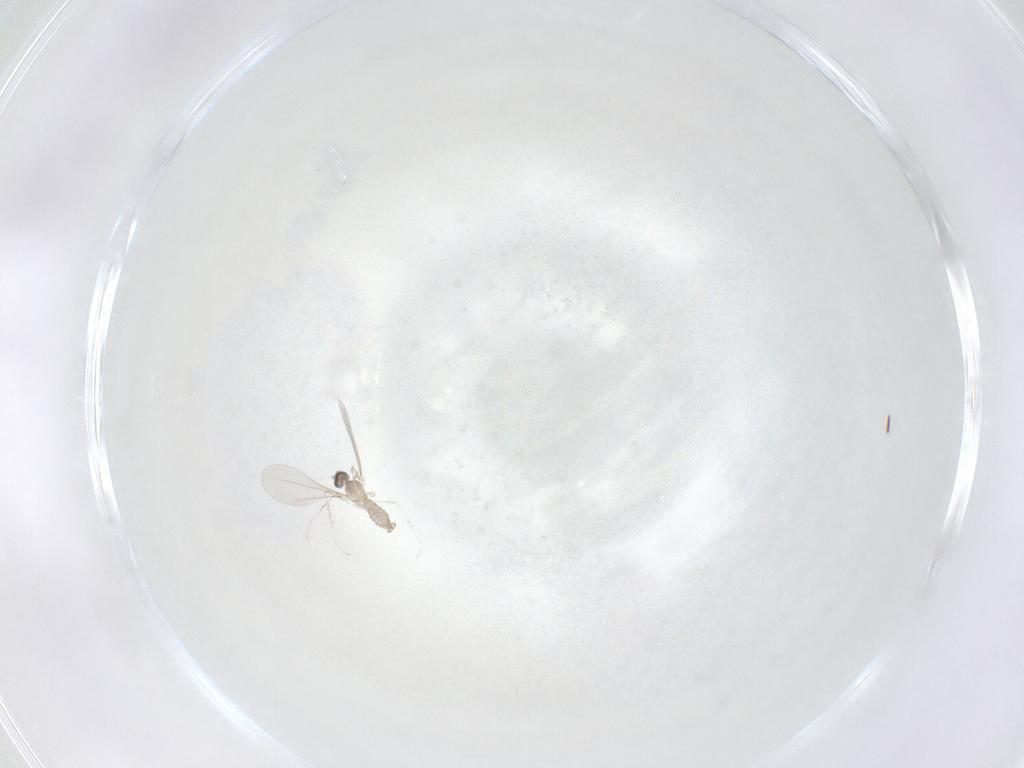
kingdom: Animalia
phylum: Arthropoda
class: Insecta
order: Diptera
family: Cecidomyiidae
